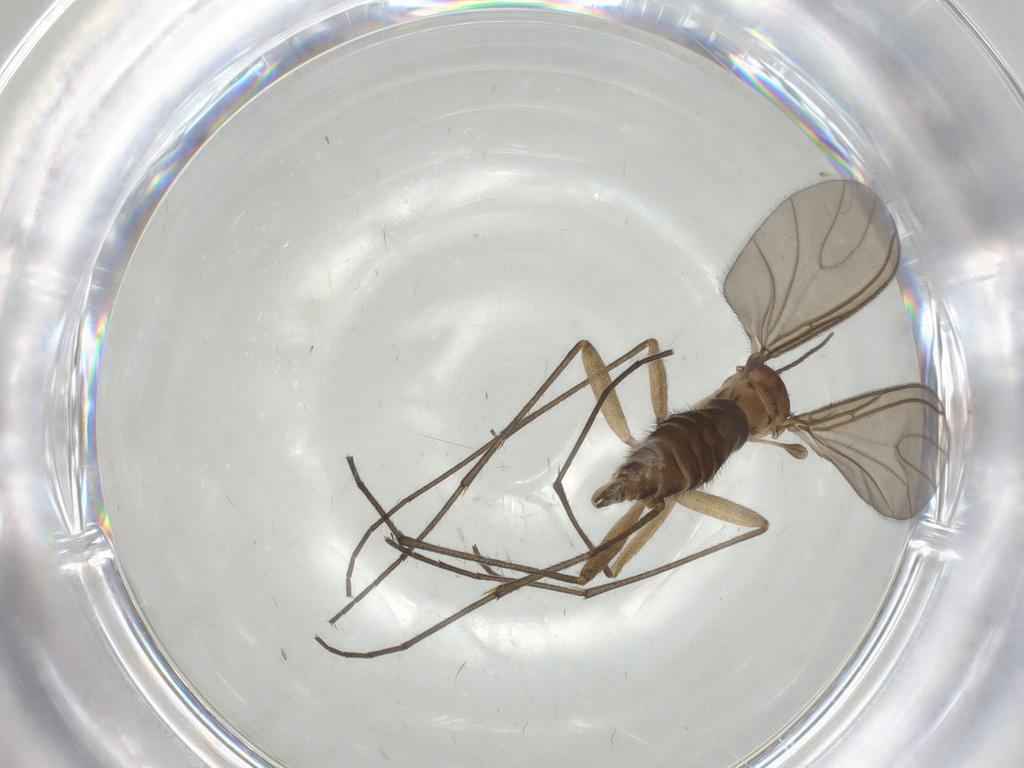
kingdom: Animalia
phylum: Arthropoda
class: Insecta
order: Diptera
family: Sciaridae
